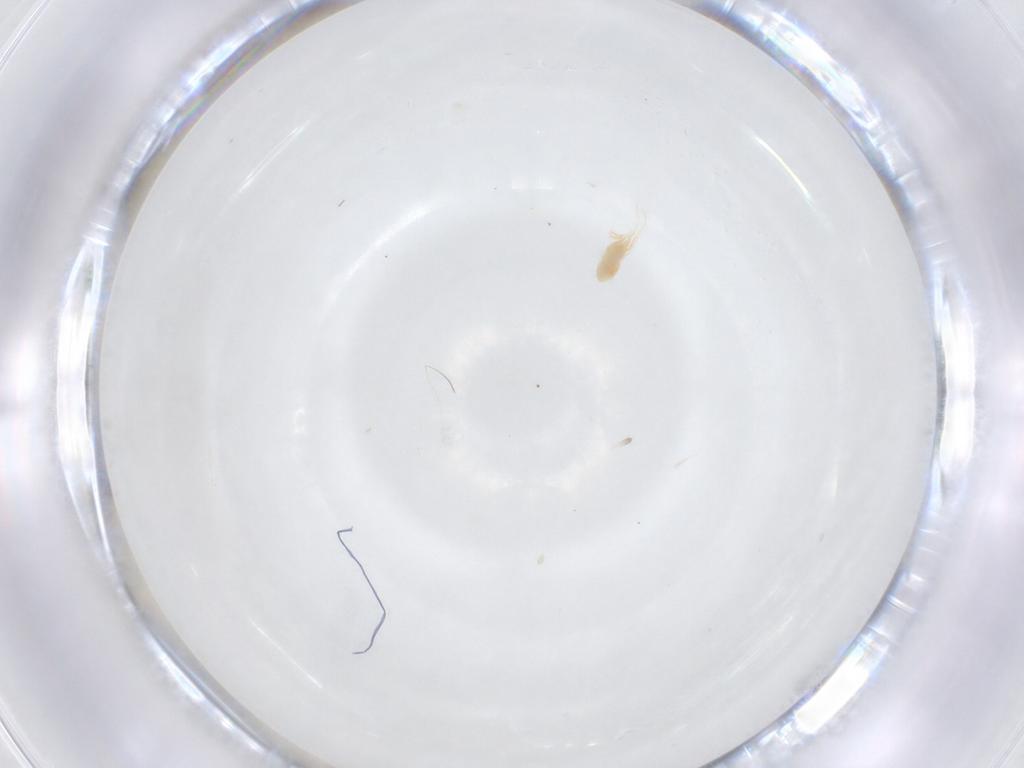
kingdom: Animalia
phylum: Arthropoda
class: Arachnida
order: Trombidiformes
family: Eupodidae
